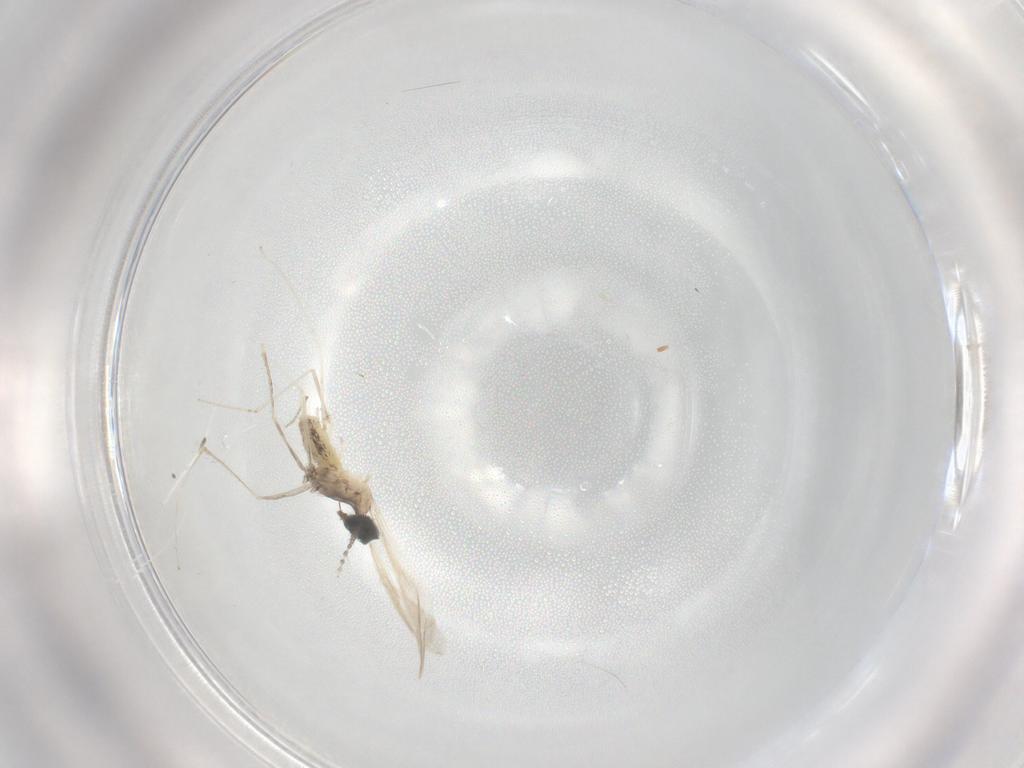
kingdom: Animalia
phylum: Arthropoda
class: Insecta
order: Diptera
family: Cecidomyiidae
